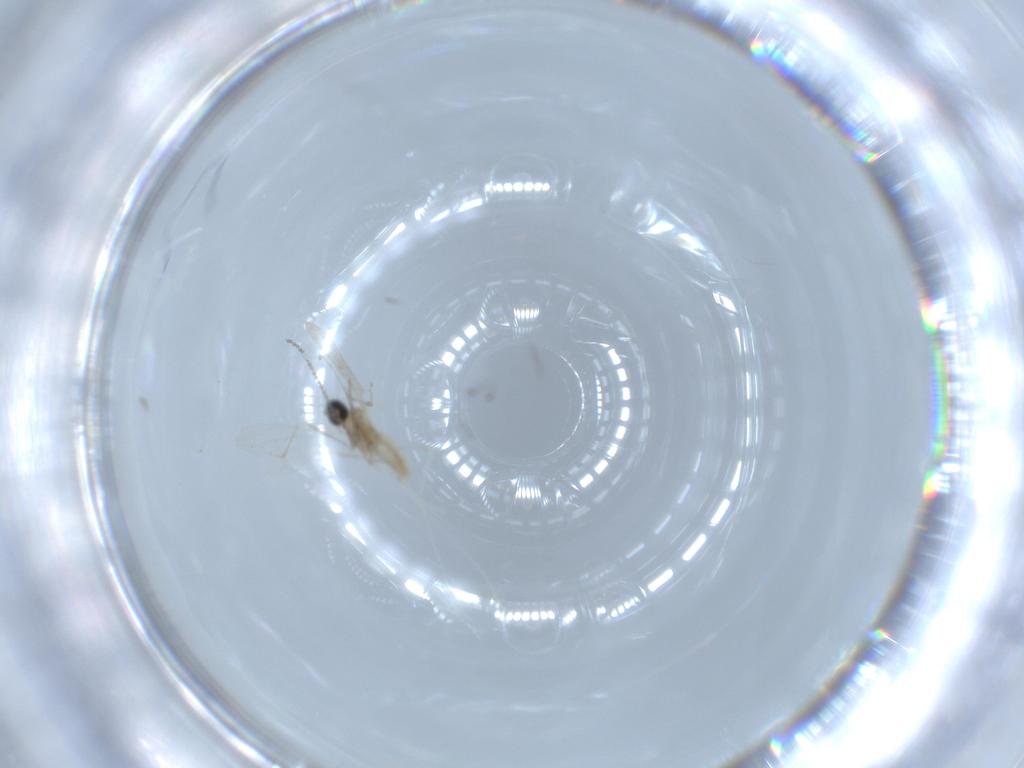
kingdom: Animalia
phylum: Arthropoda
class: Insecta
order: Diptera
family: Cecidomyiidae
